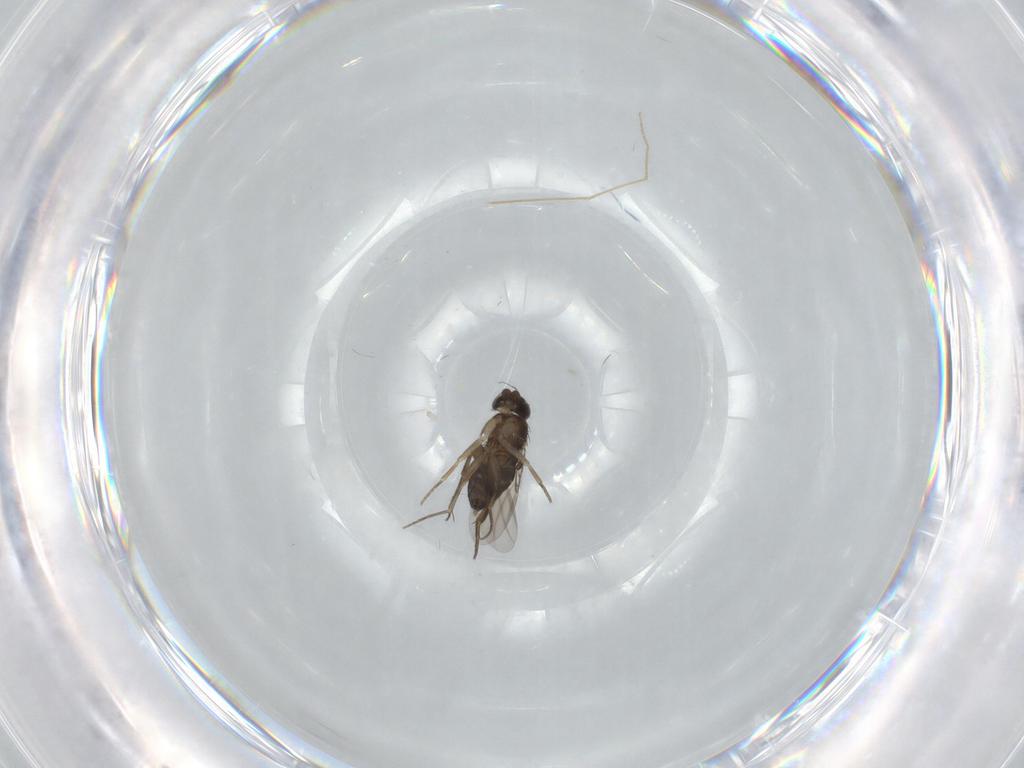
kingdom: Animalia
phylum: Arthropoda
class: Insecta
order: Diptera
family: Phoridae
